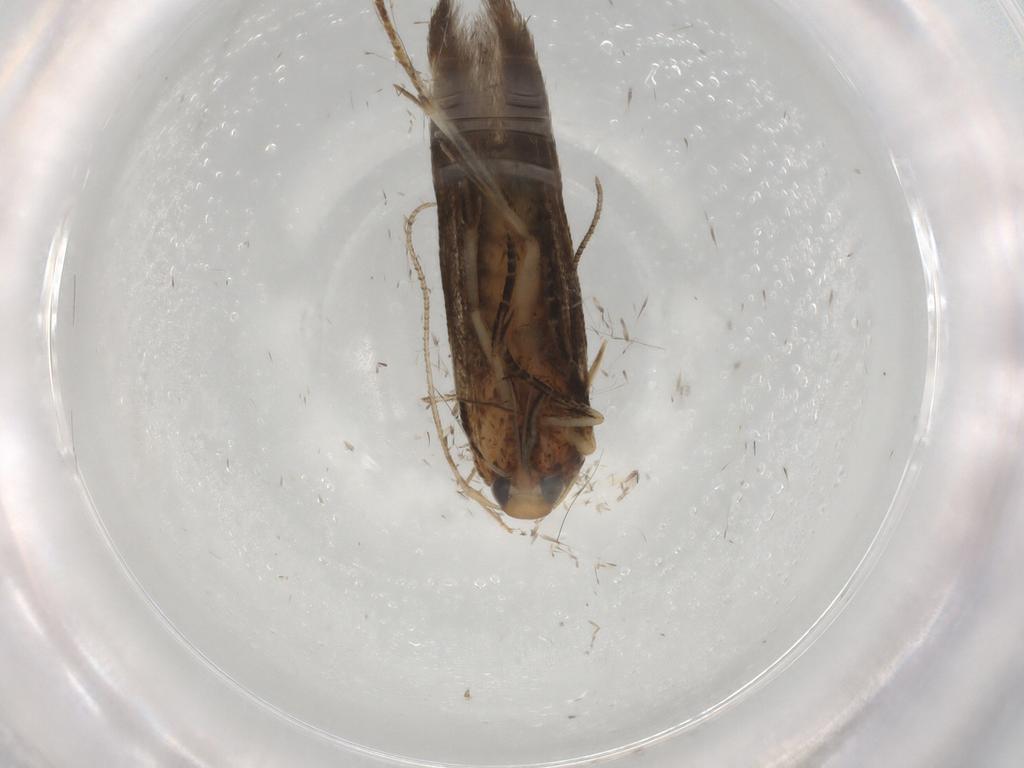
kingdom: Animalia
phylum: Arthropoda
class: Insecta
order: Lepidoptera
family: Cosmopterigidae
